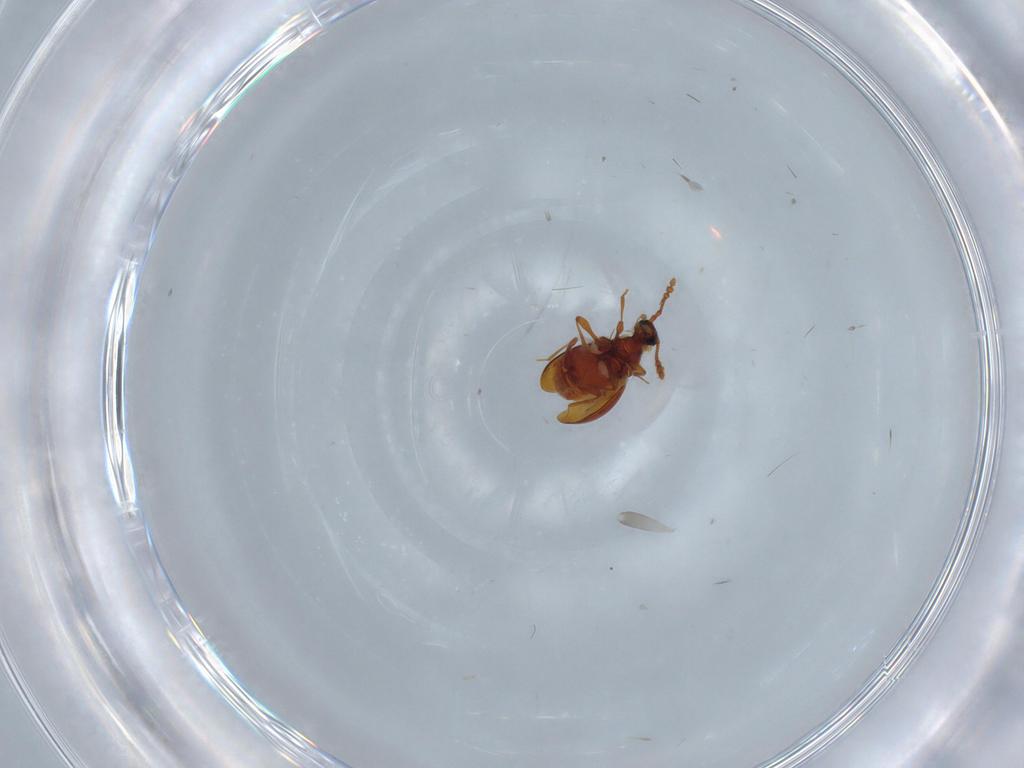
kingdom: Animalia
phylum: Arthropoda
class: Insecta
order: Coleoptera
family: Staphylinidae
